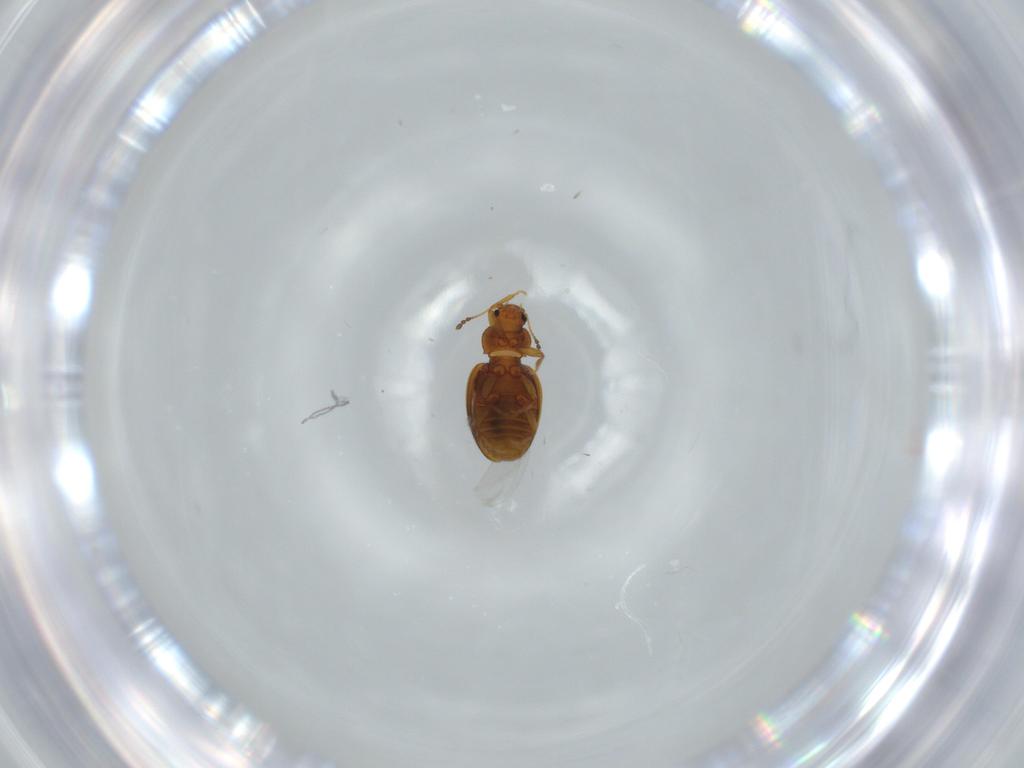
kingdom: Animalia
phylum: Arthropoda
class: Insecta
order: Coleoptera
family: Latridiidae
